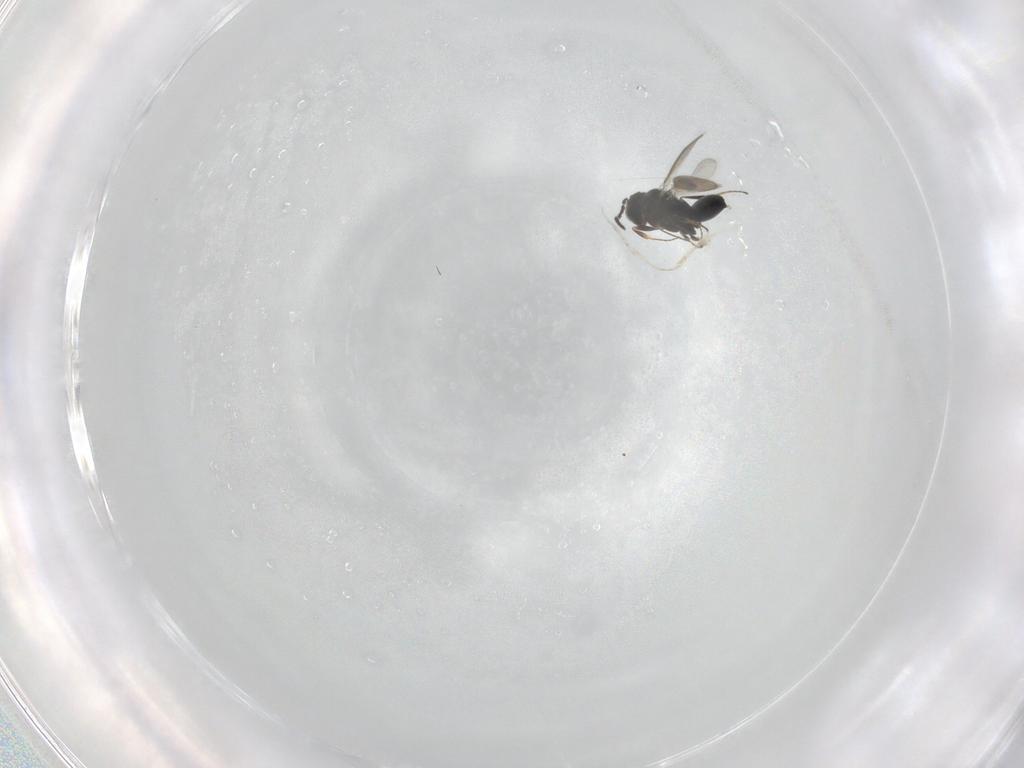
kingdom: Animalia
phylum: Arthropoda
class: Insecta
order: Hymenoptera
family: Scelionidae
